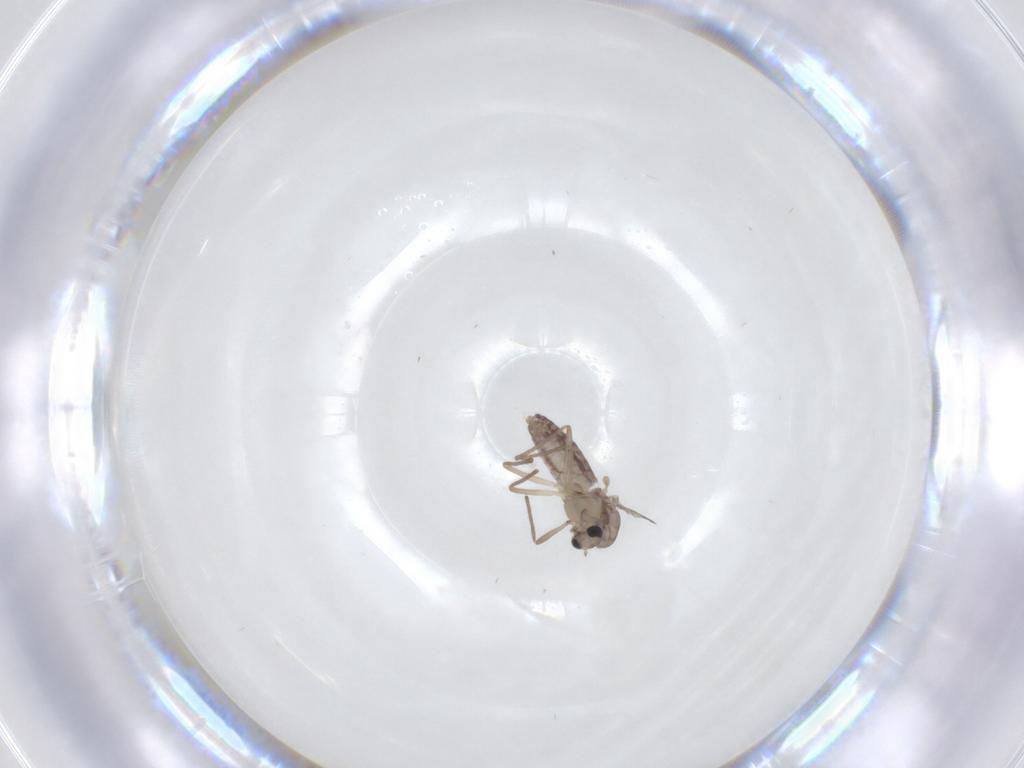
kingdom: Animalia
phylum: Arthropoda
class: Insecta
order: Diptera
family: Chironomidae
